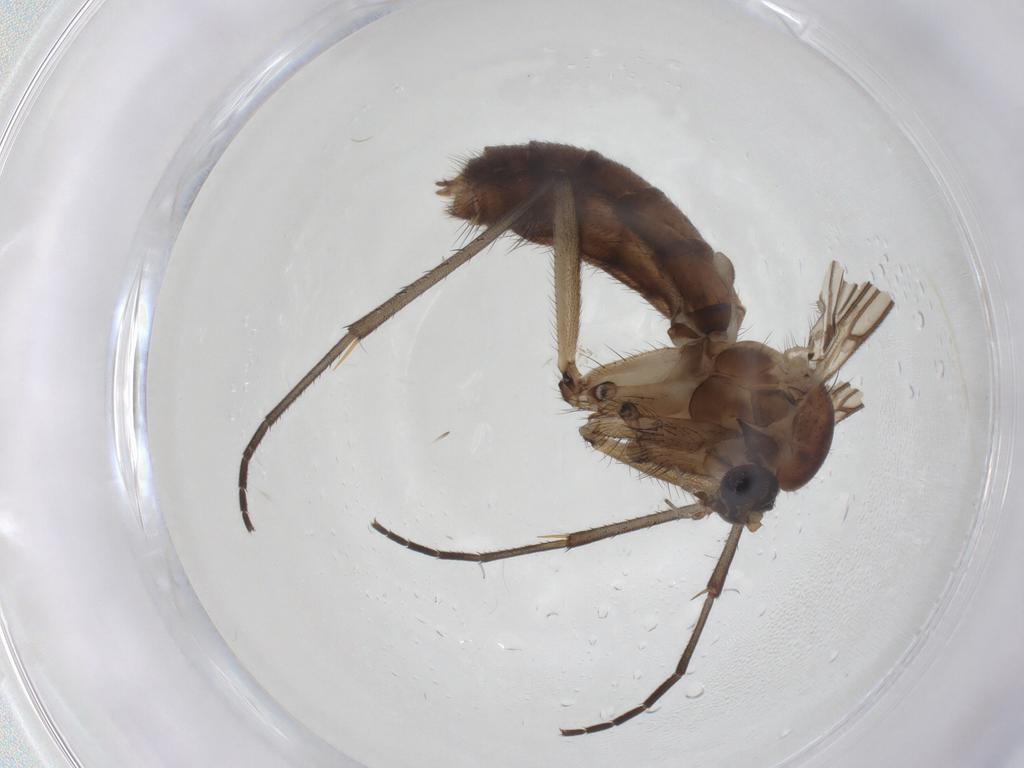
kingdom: Animalia
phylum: Arthropoda
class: Insecta
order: Diptera
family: Mycetophilidae
